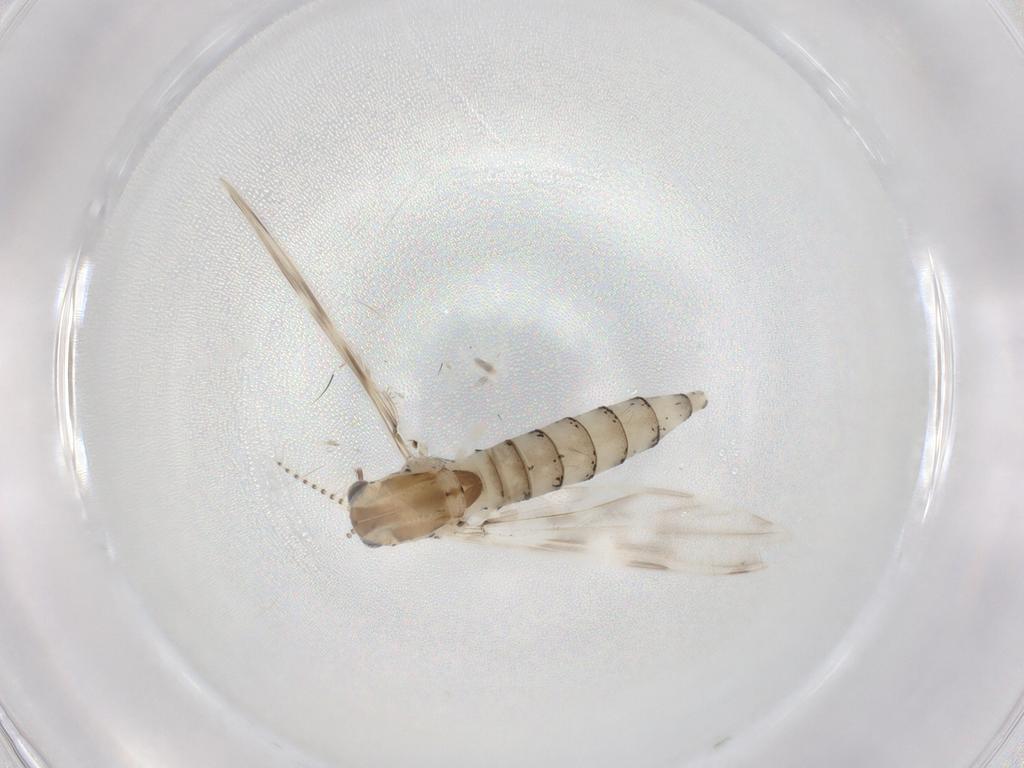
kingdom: Animalia
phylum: Arthropoda
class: Insecta
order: Diptera
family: Chaoboridae
